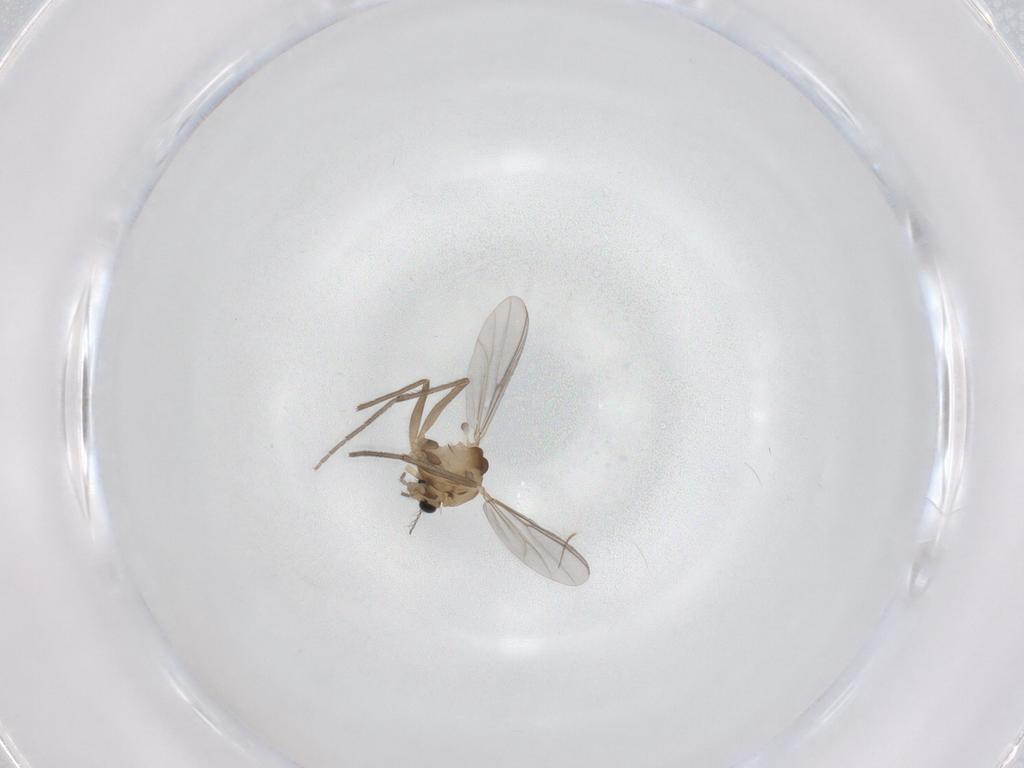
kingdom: Animalia
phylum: Arthropoda
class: Insecta
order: Diptera
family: Chironomidae
